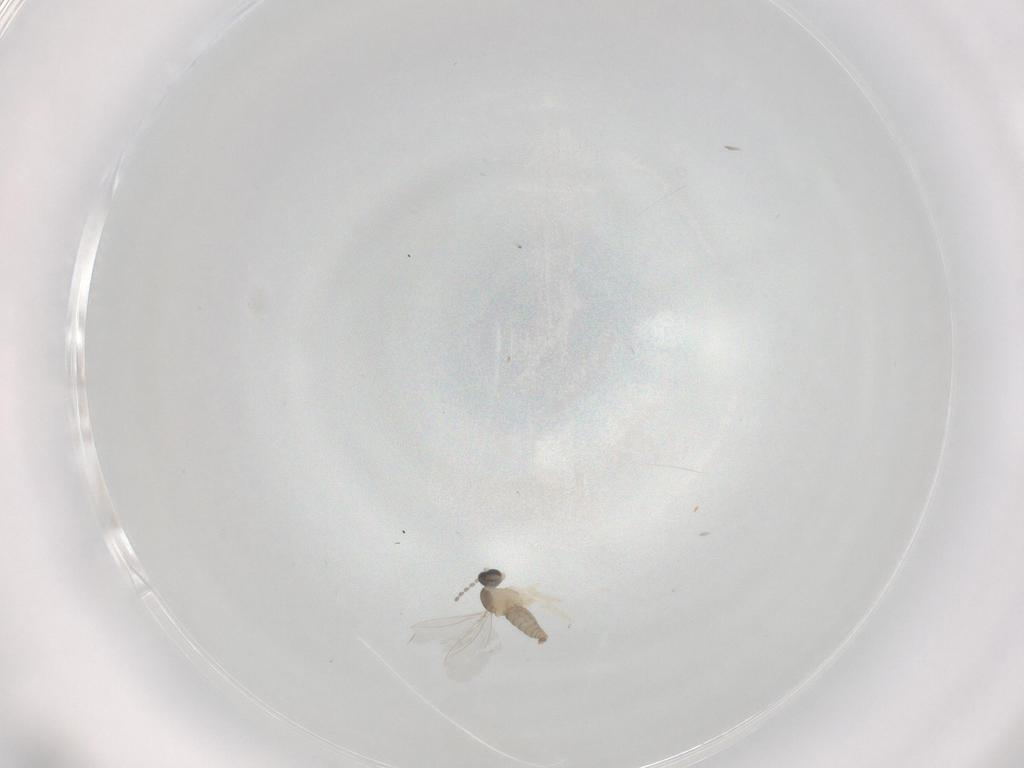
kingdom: Animalia
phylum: Arthropoda
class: Insecta
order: Diptera
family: Cecidomyiidae
